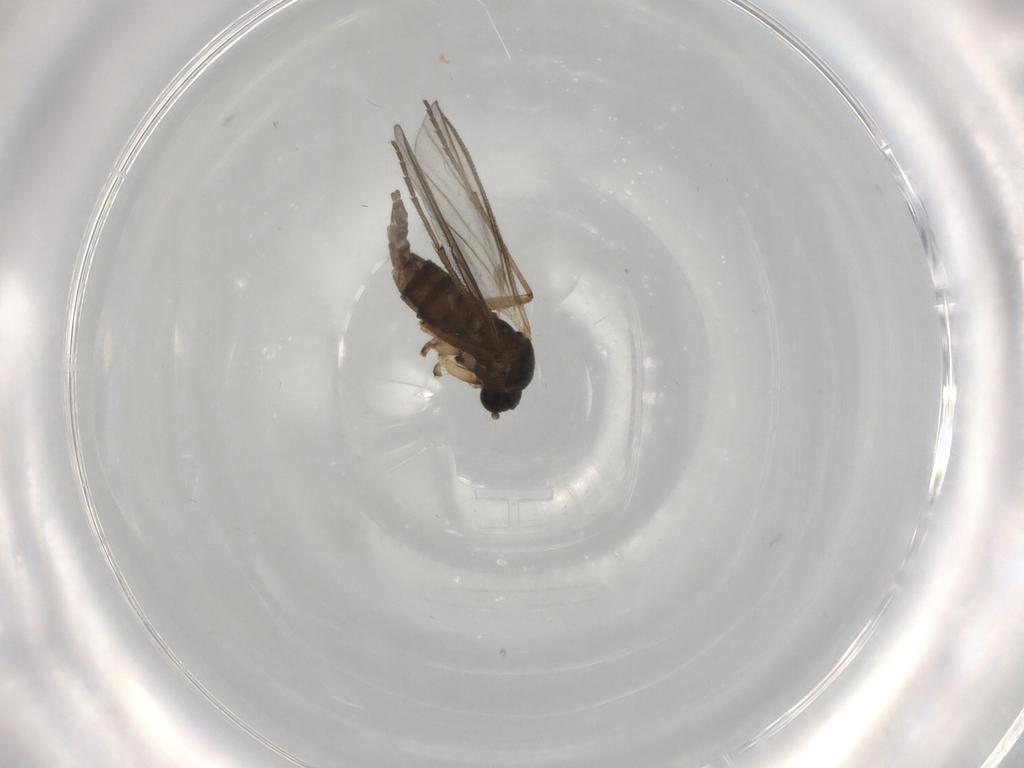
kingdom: Animalia
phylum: Arthropoda
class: Insecta
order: Diptera
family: Sciaridae
